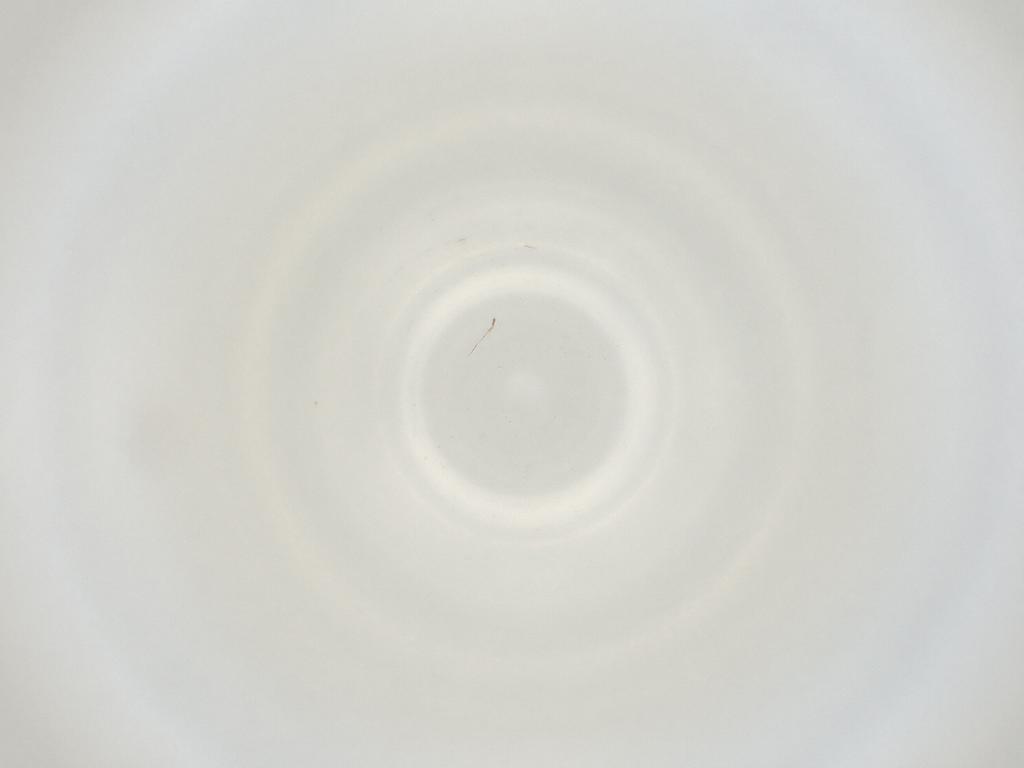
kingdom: Animalia
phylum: Arthropoda
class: Insecta
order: Diptera
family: Cecidomyiidae
